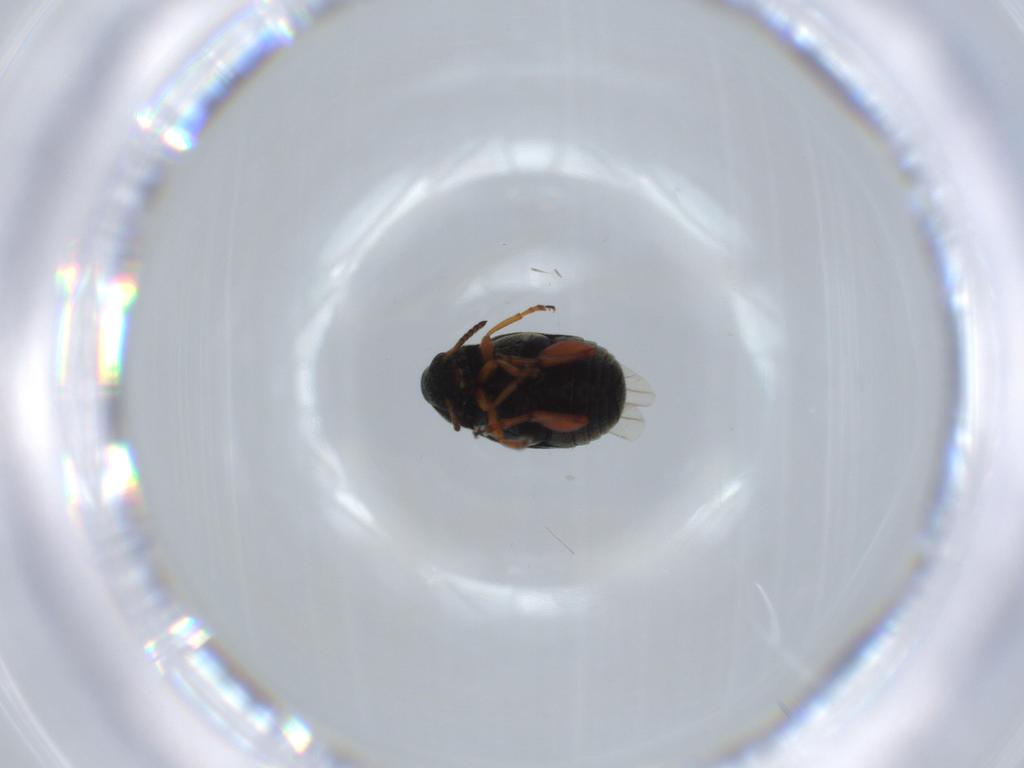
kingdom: Animalia
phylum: Arthropoda
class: Insecta
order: Coleoptera
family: Chrysomelidae
